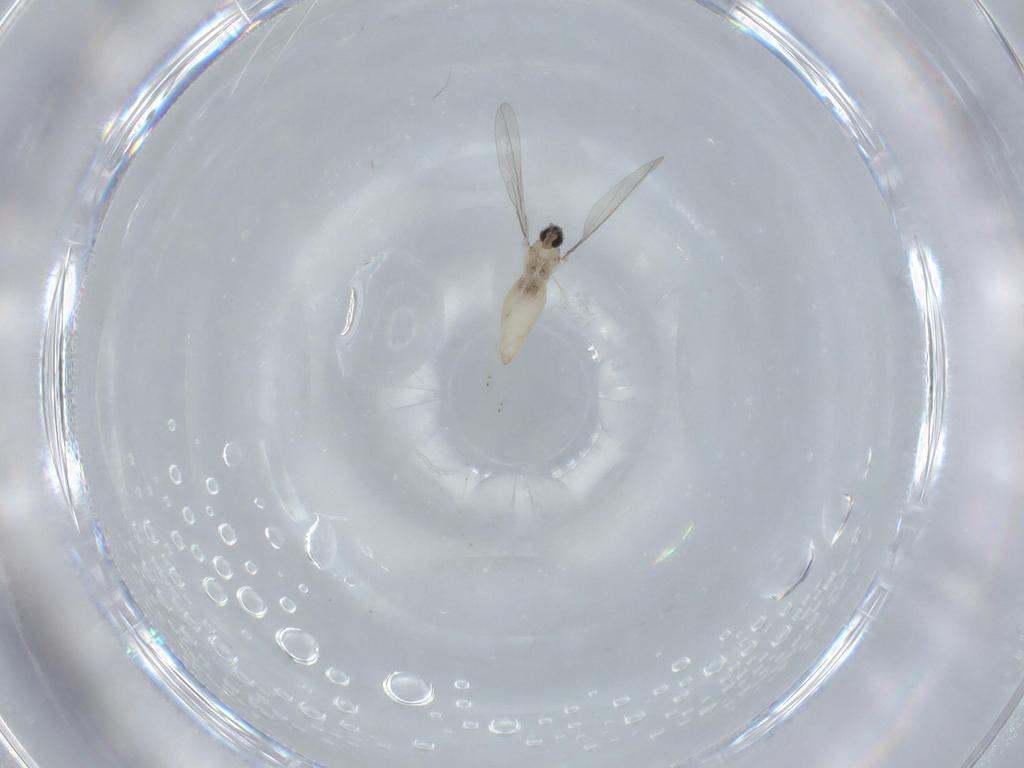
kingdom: Animalia
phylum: Arthropoda
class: Insecta
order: Diptera
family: Cecidomyiidae
